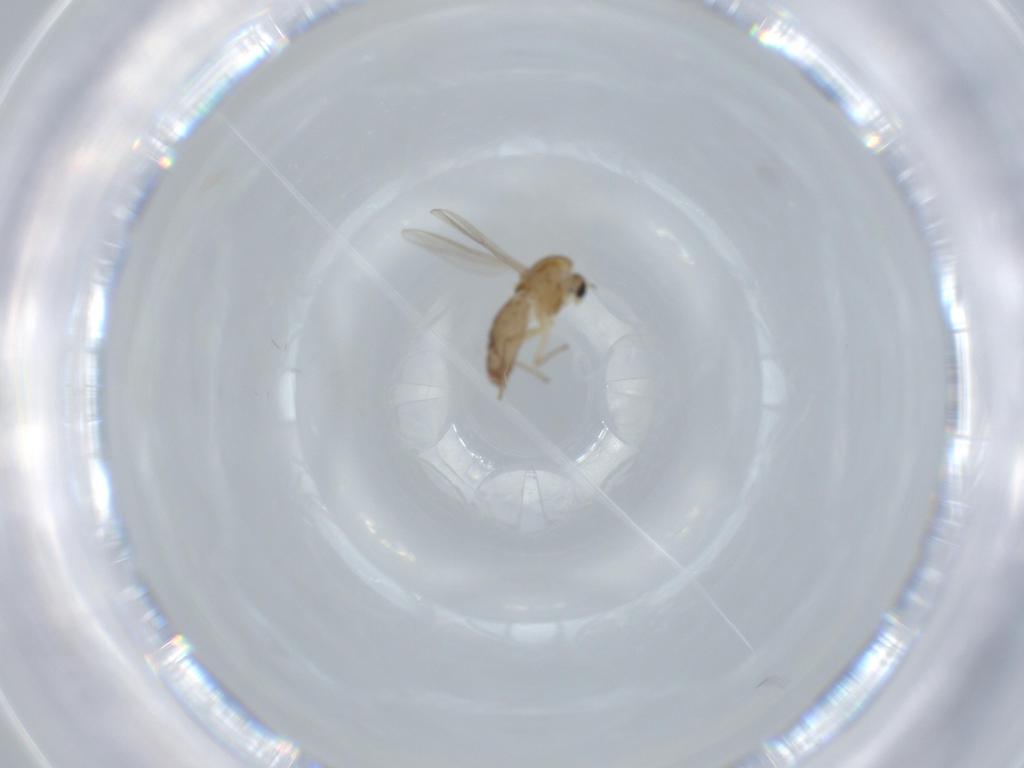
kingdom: Animalia
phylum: Arthropoda
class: Insecta
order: Diptera
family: Chironomidae
